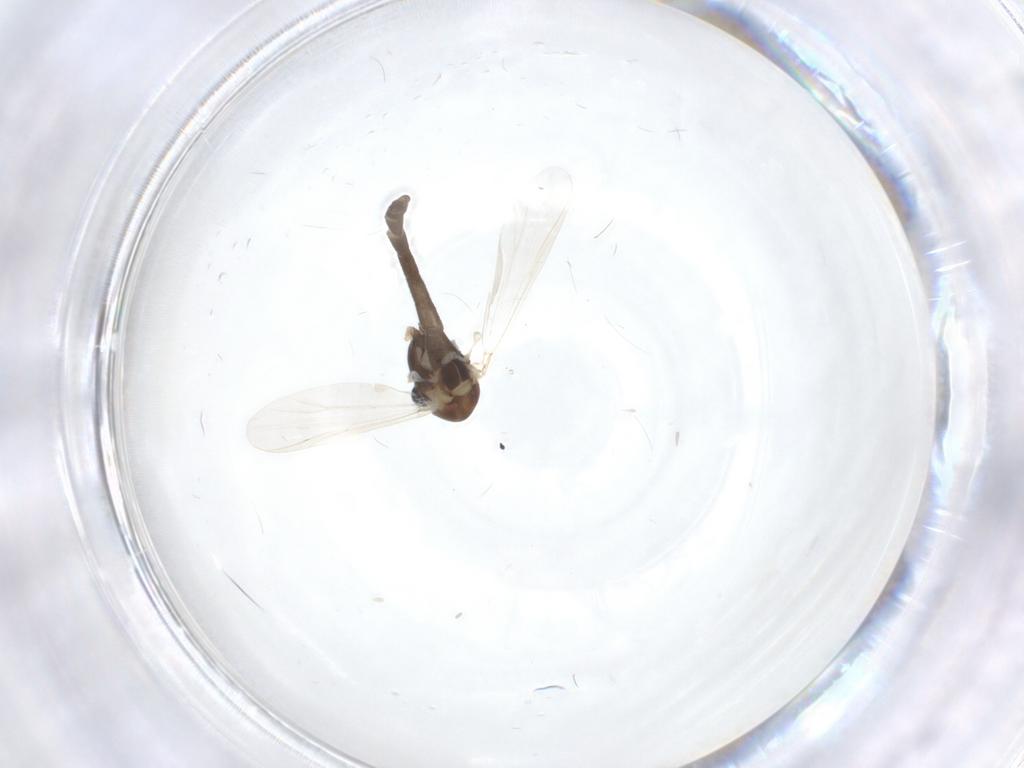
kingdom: Animalia
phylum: Arthropoda
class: Insecta
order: Diptera
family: Chironomidae
